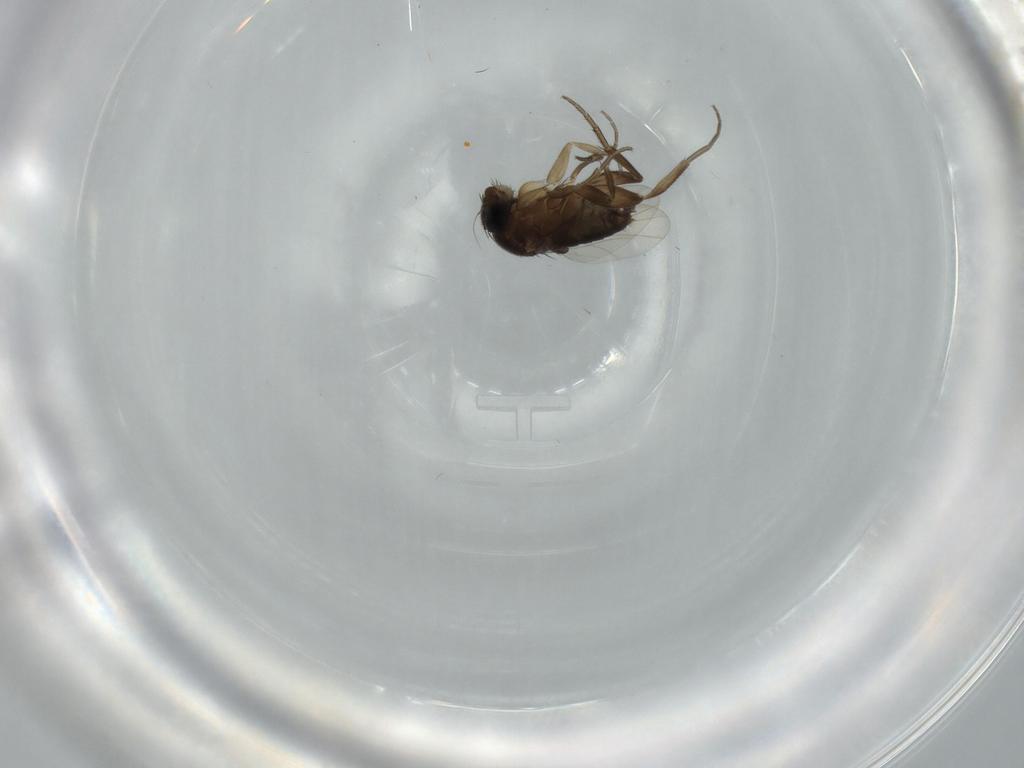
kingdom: Animalia
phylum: Arthropoda
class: Insecta
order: Diptera
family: Phoridae
